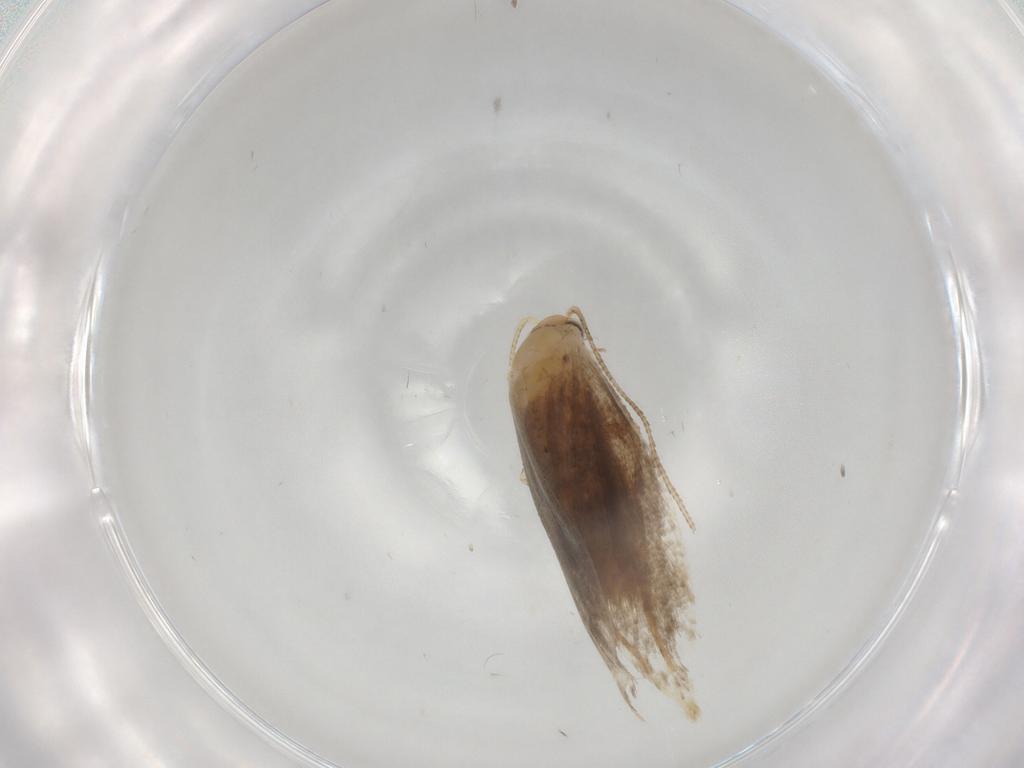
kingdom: Animalia
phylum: Arthropoda
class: Insecta
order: Lepidoptera
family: Tineidae
